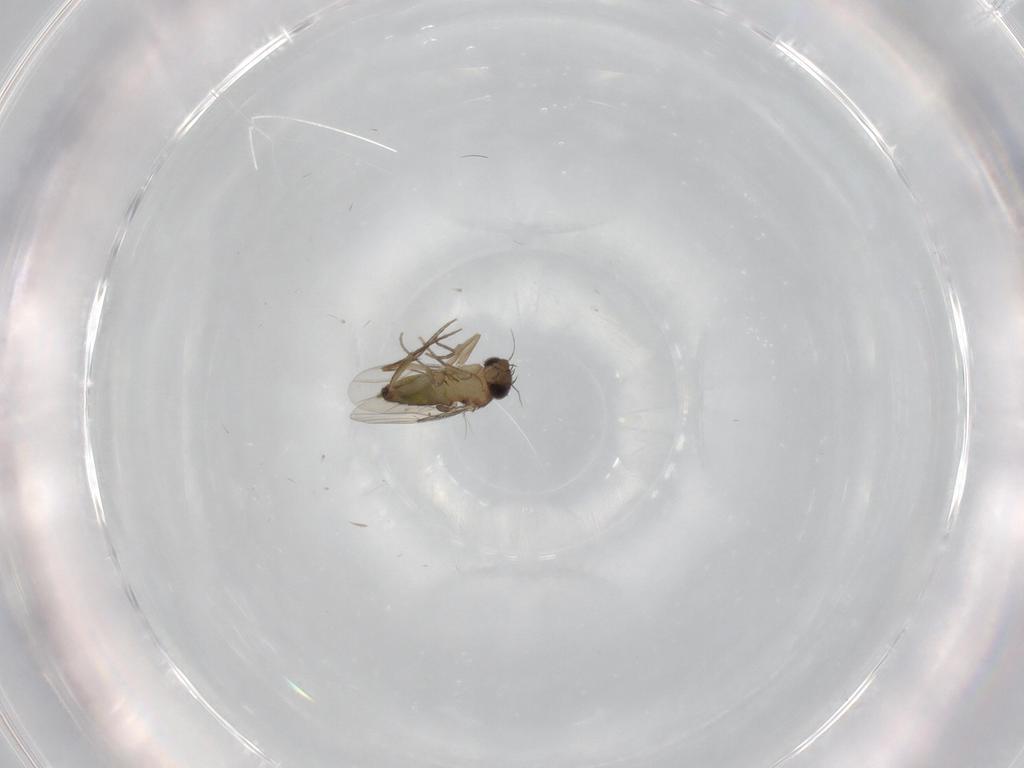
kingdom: Animalia
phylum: Arthropoda
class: Insecta
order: Diptera
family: Phoridae
